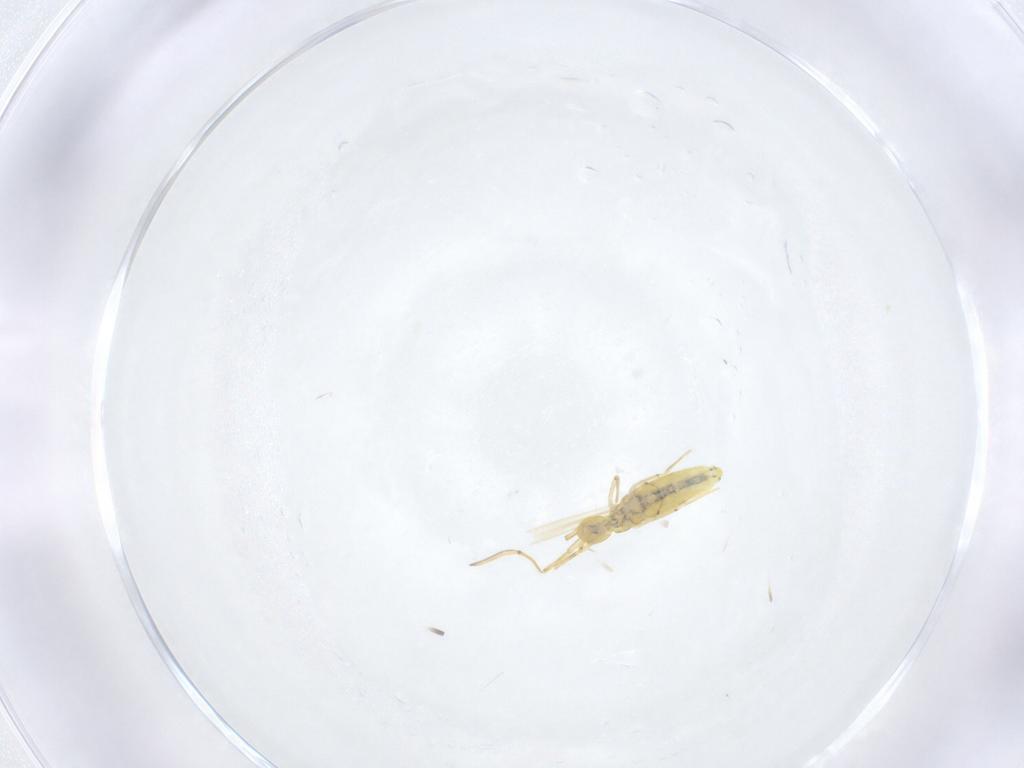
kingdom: Animalia
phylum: Arthropoda
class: Collembola
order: Entomobryomorpha
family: Entomobryidae
